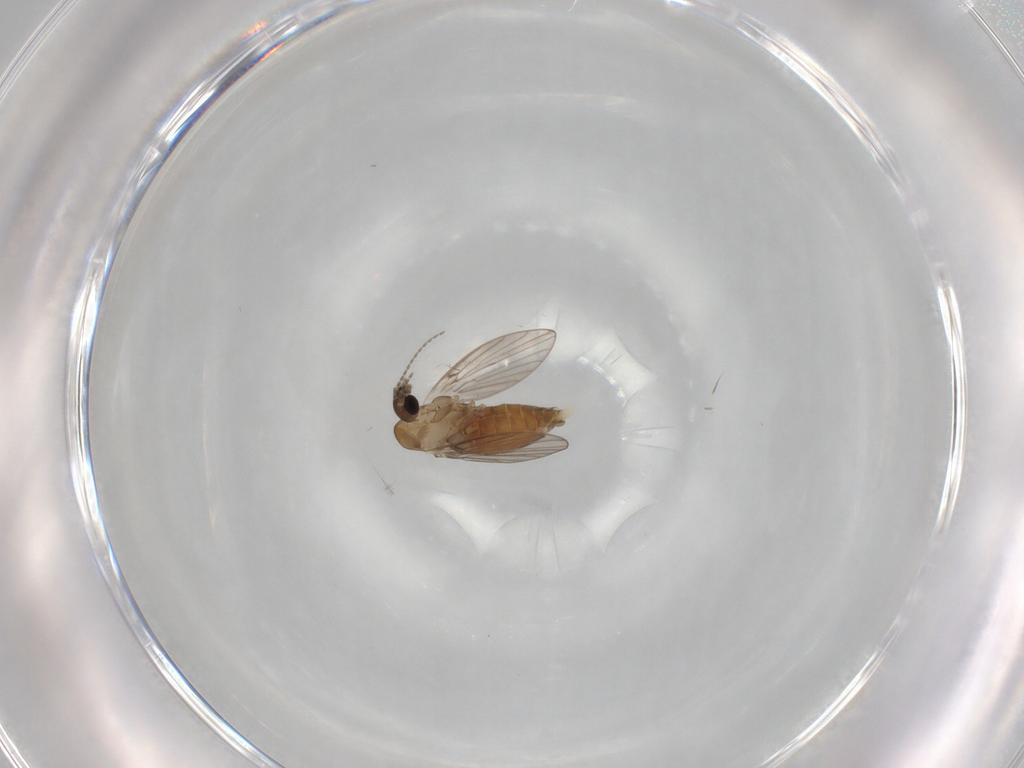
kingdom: Animalia
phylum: Arthropoda
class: Insecta
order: Diptera
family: Psychodidae
